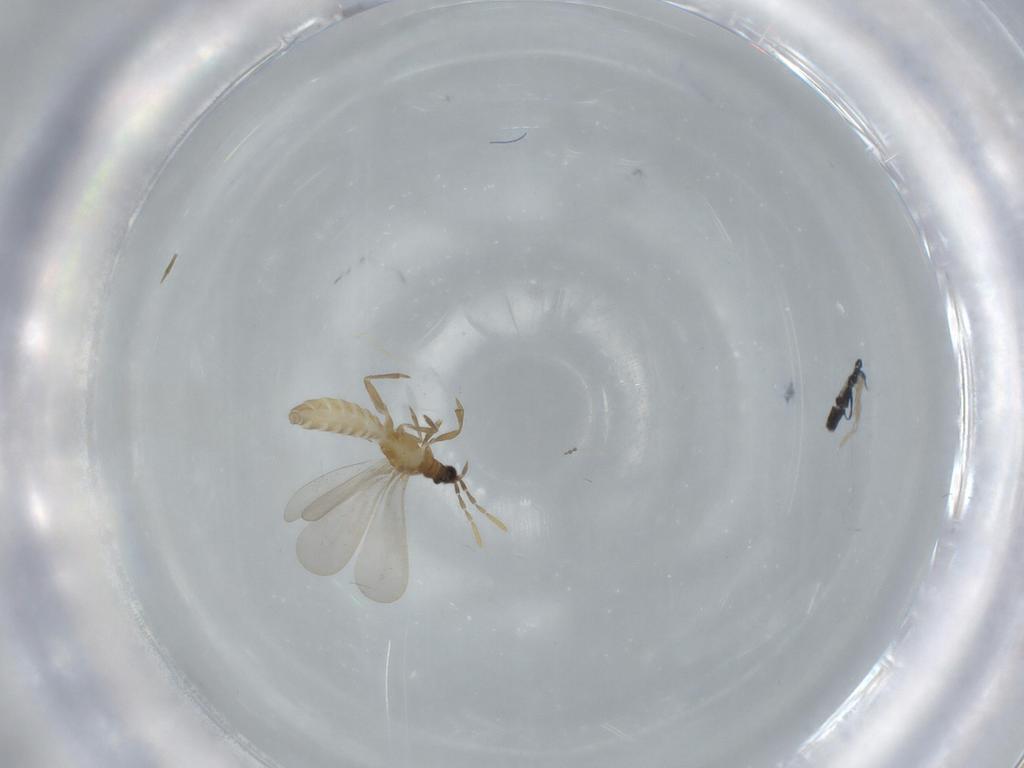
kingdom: Animalia
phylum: Arthropoda
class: Insecta
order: Hemiptera
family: Enicocephalidae
